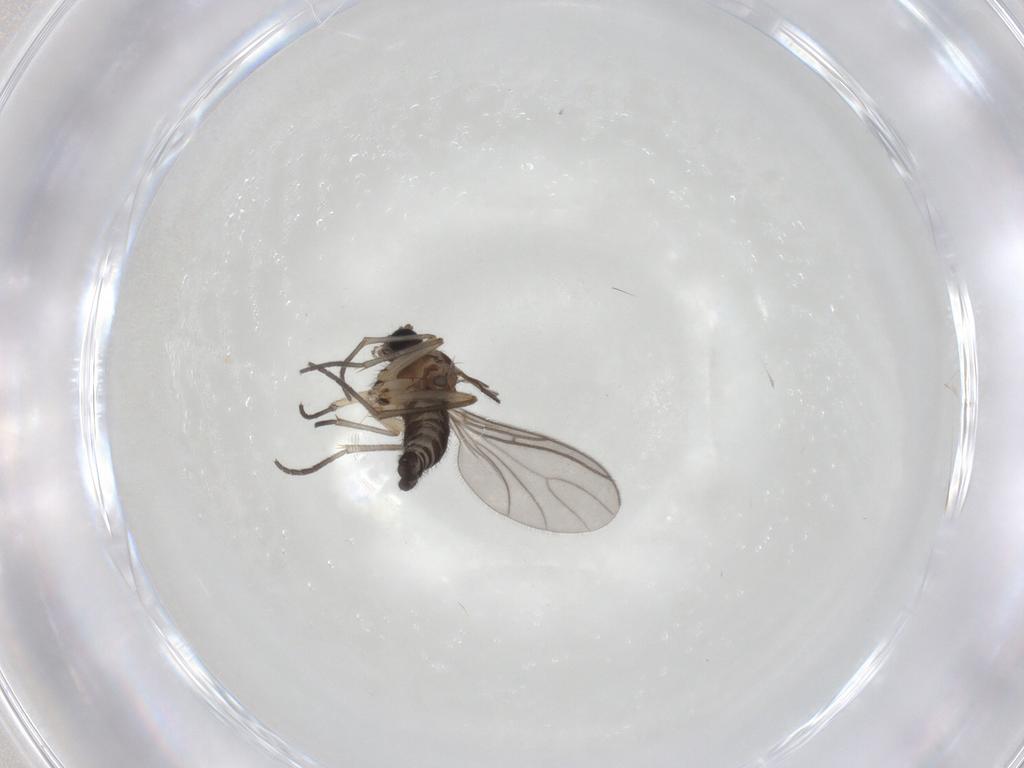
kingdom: Animalia
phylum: Arthropoda
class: Insecta
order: Diptera
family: Sciaridae
